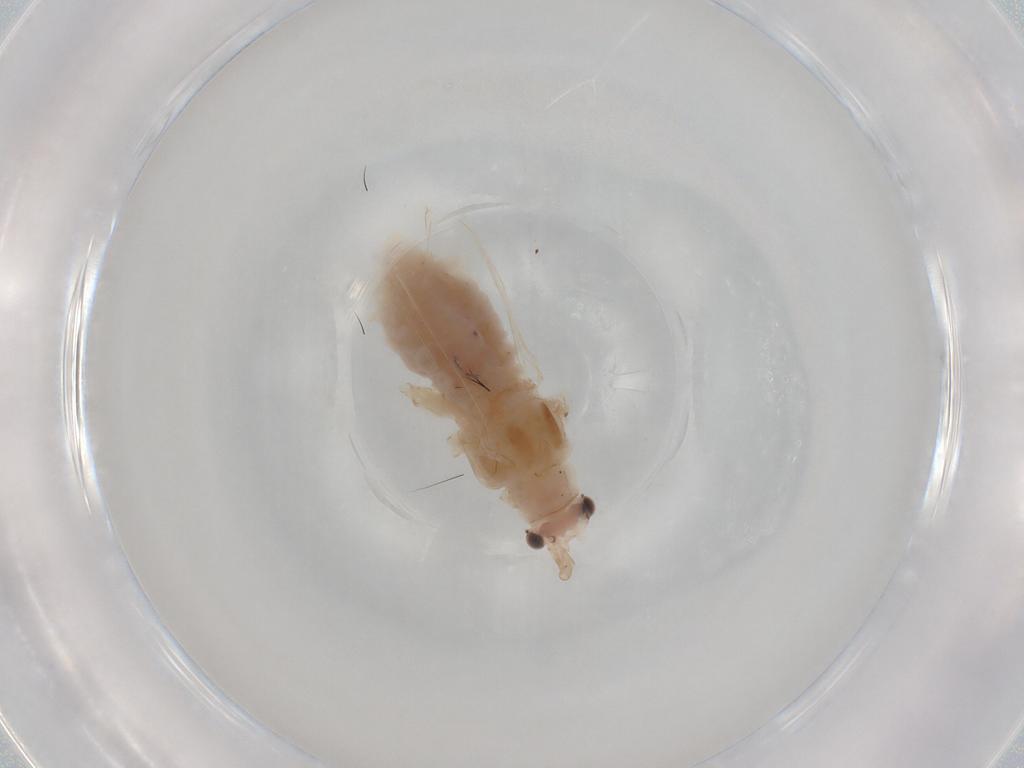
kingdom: Animalia
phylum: Arthropoda
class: Insecta
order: Hemiptera
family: Aphididae
